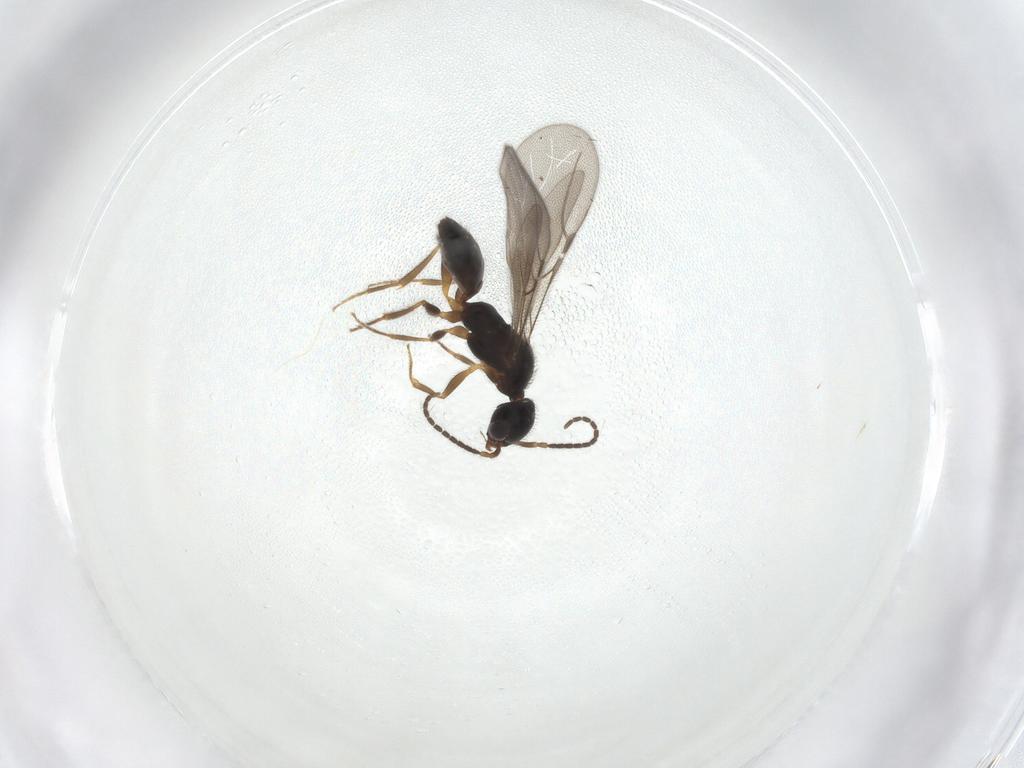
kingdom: Animalia
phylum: Arthropoda
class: Insecta
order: Hymenoptera
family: Bethylidae
